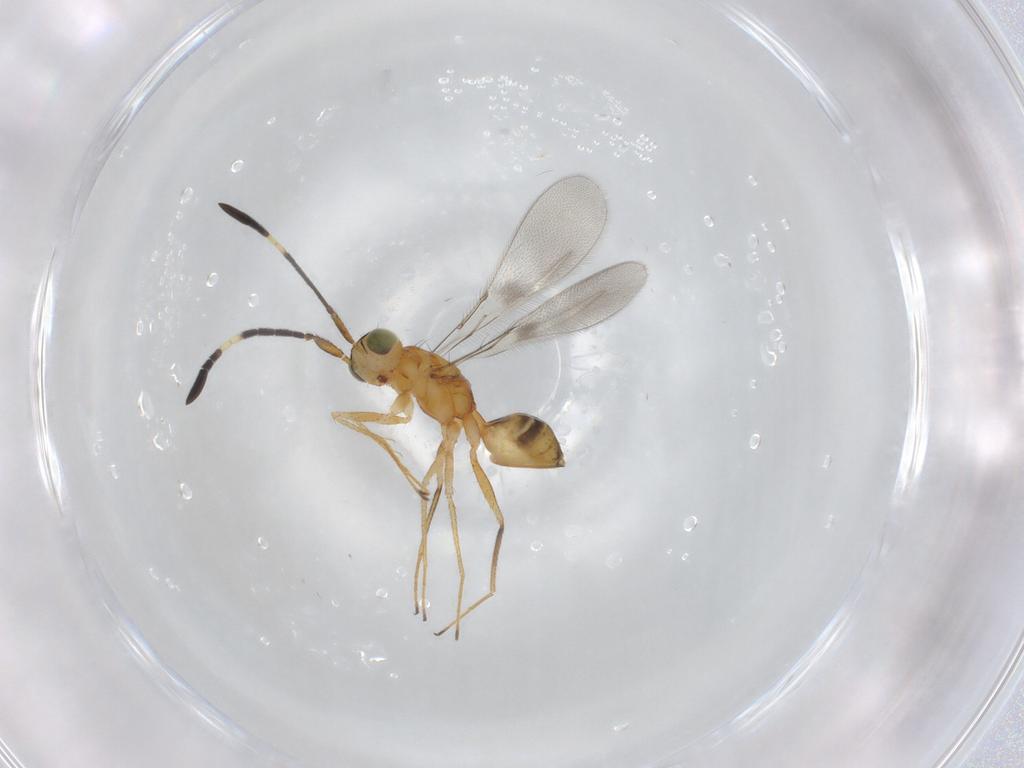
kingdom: Animalia
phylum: Arthropoda
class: Insecta
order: Hymenoptera
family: Mymaridae
